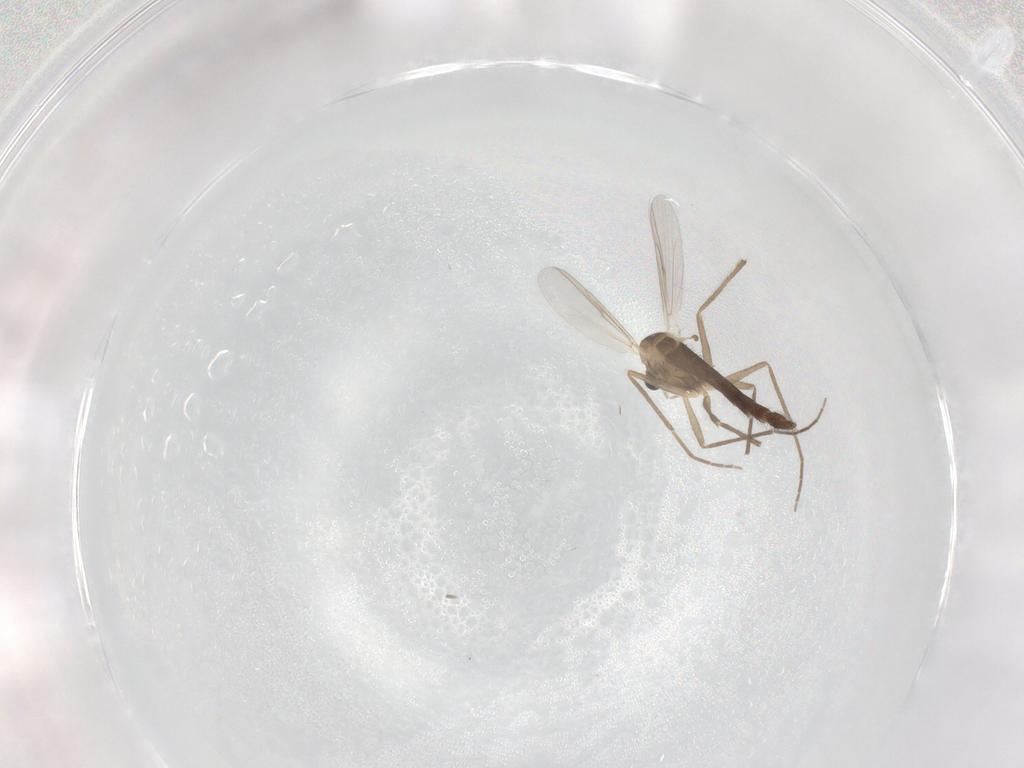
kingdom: Animalia
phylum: Arthropoda
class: Insecta
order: Diptera
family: Chironomidae
